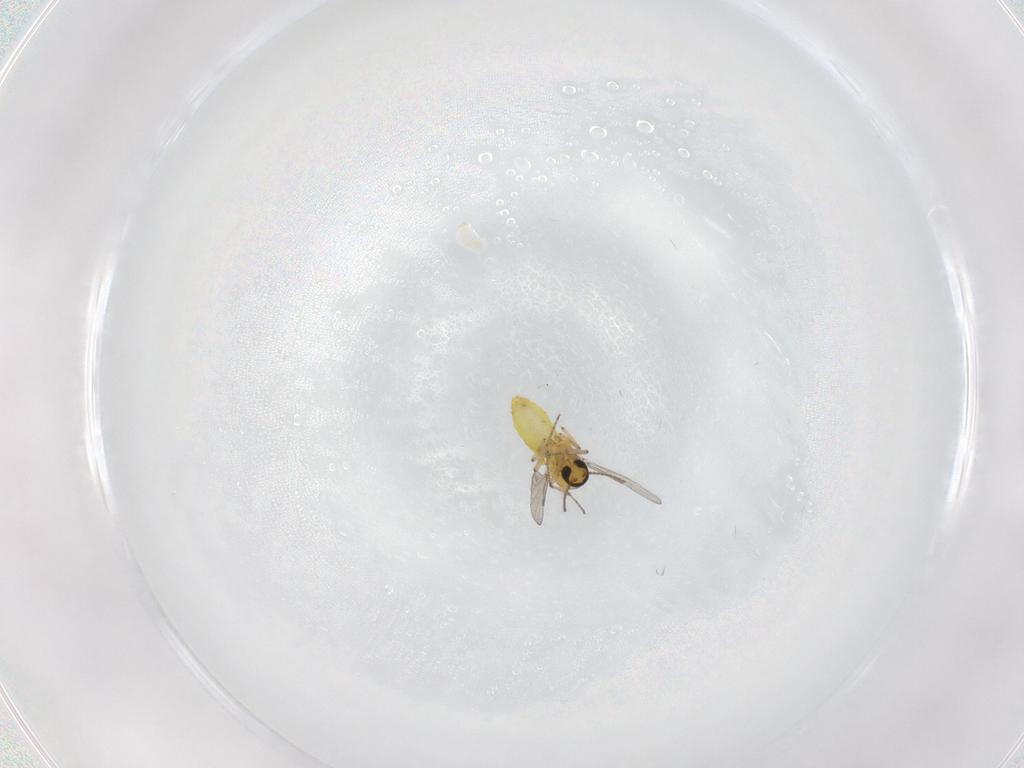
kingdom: Animalia
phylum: Arthropoda
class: Insecta
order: Diptera
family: Ceratopogonidae
